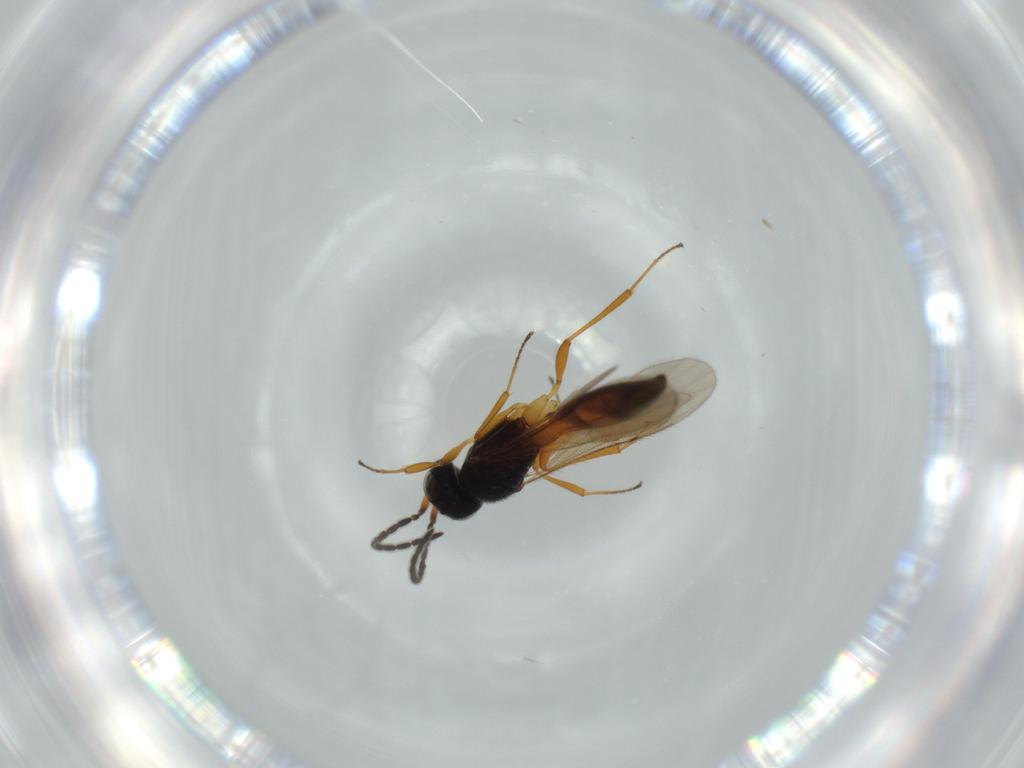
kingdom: Animalia
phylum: Arthropoda
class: Insecta
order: Hymenoptera
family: Scelionidae
